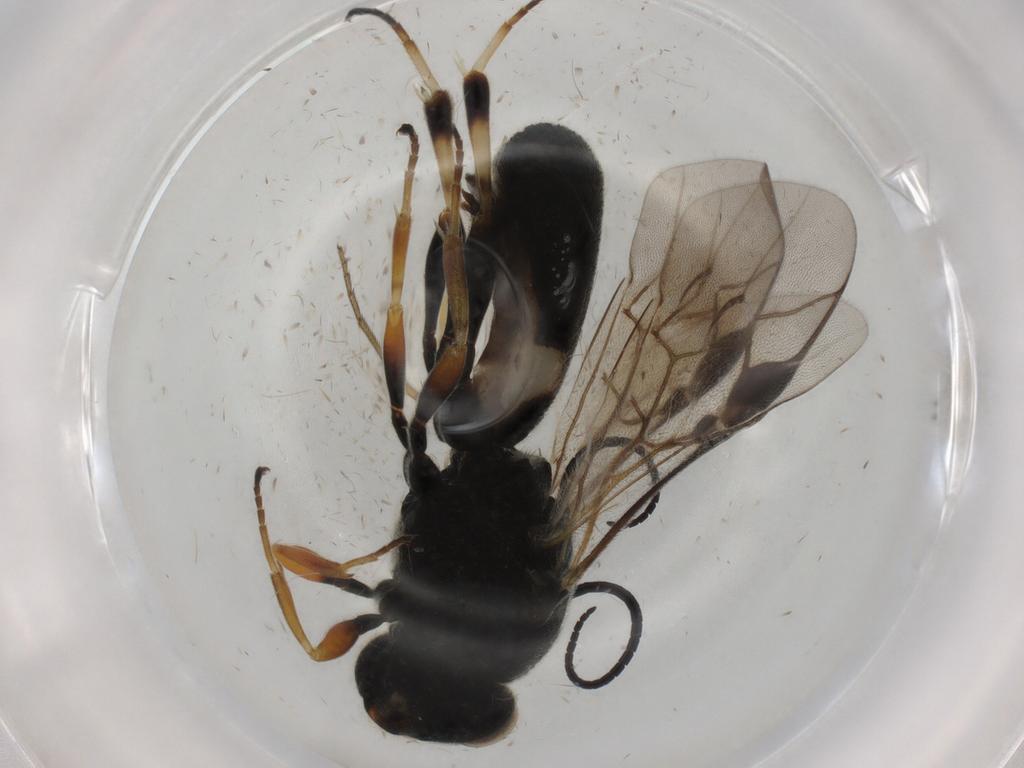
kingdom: Animalia
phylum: Arthropoda
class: Insecta
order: Hymenoptera
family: Braconidae
